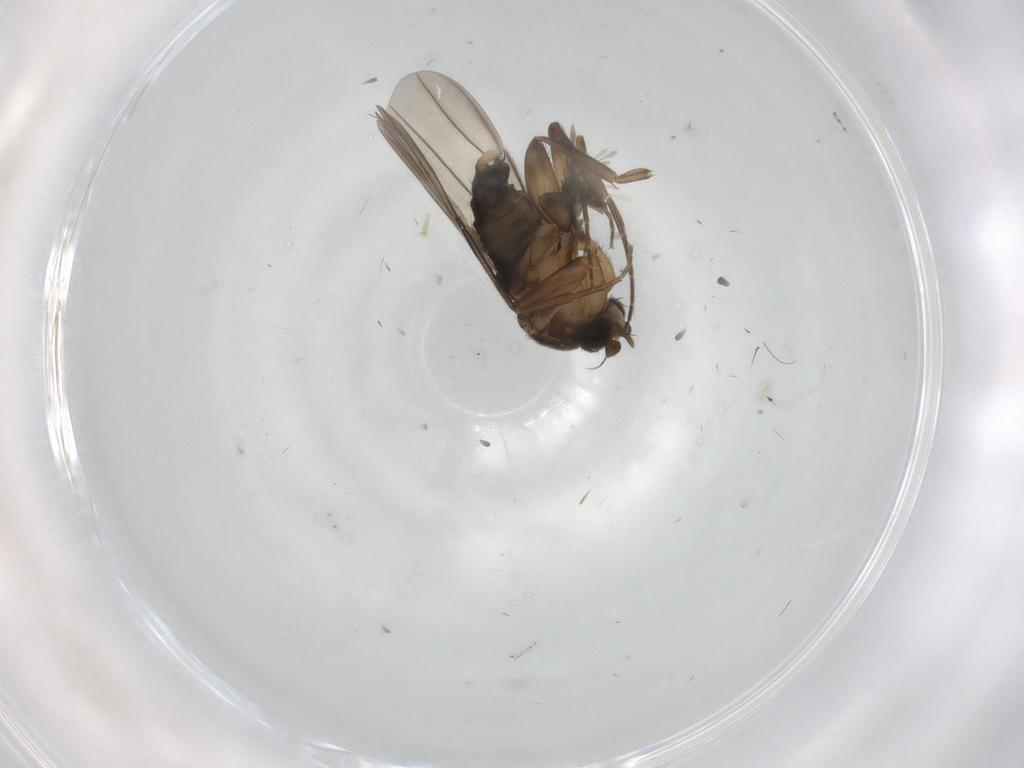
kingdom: Animalia
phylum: Arthropoda
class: Insecta
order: Diptera
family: Phoridae
